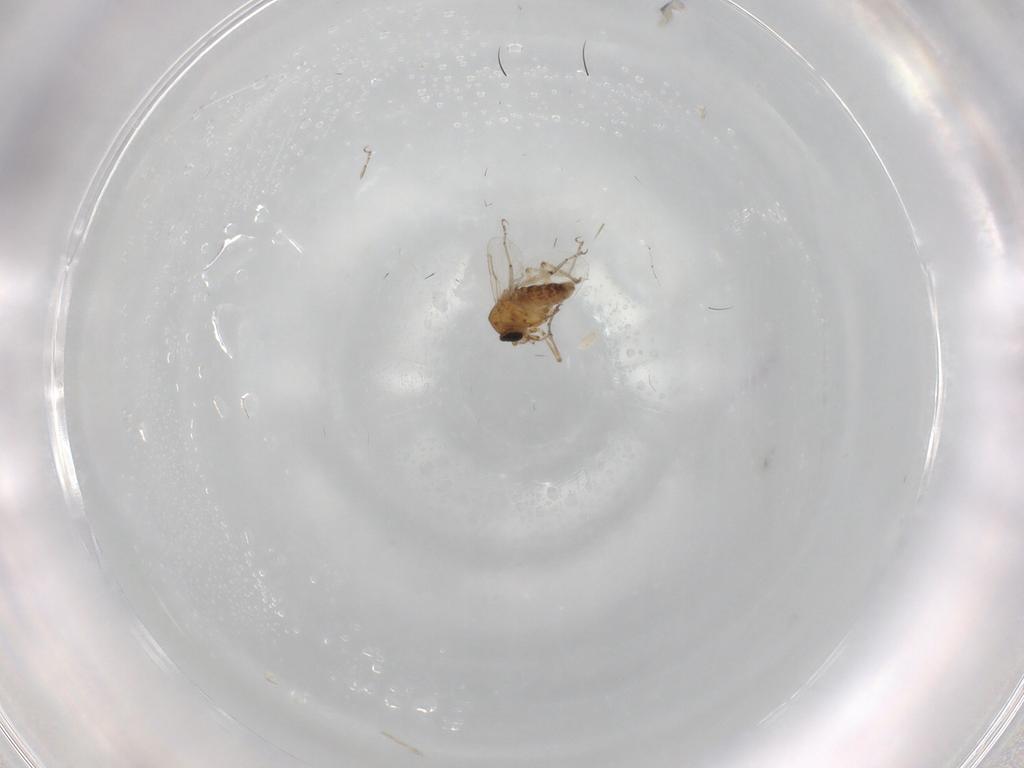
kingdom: Animalia
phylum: Arthropoda
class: Insecta
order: Diptera
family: Ceratopogonidae
